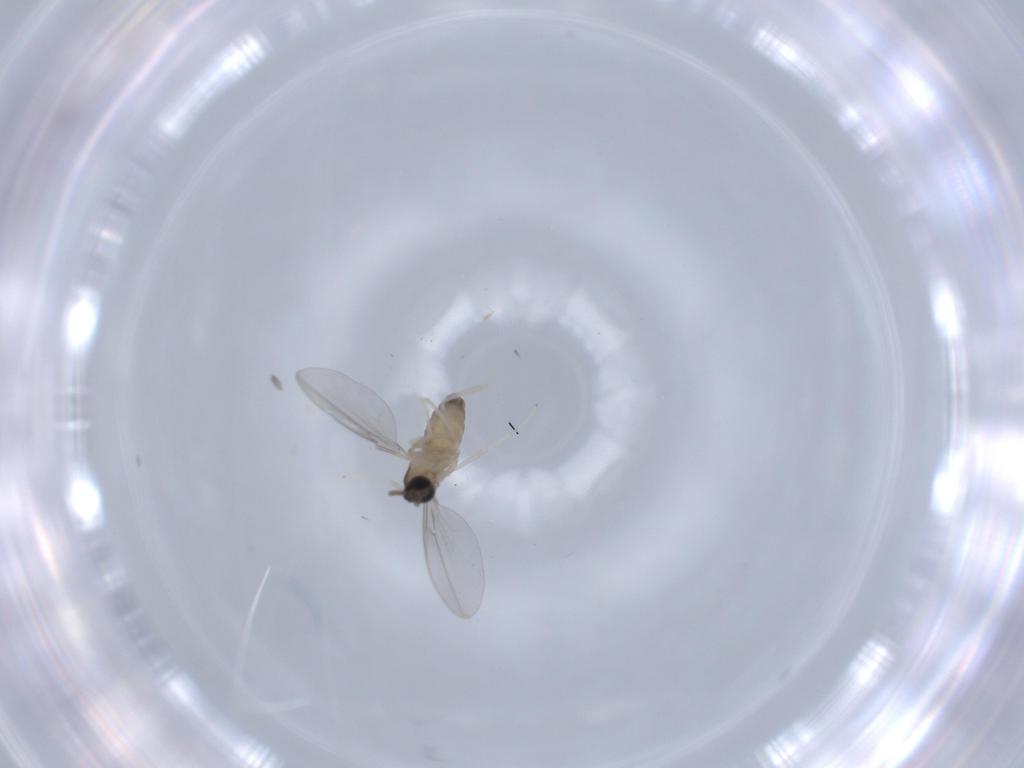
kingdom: Animalia
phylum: Arthropoda
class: Insecta
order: Diptera
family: Cecidomyiidae
